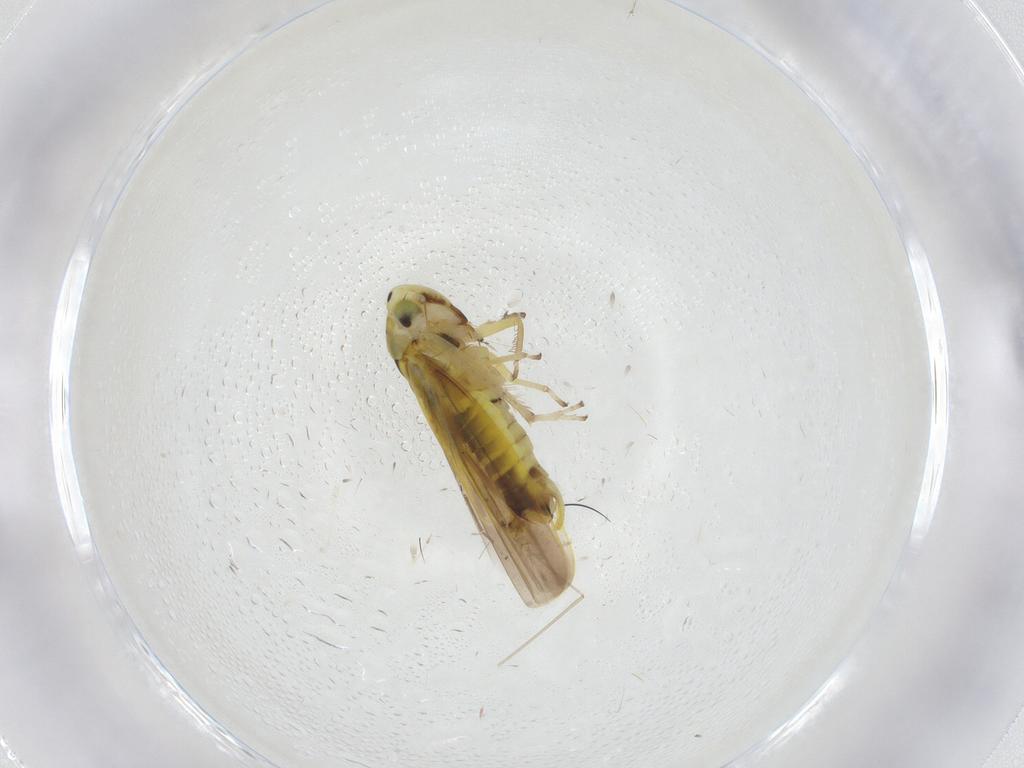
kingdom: Animalia
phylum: Arthropoda
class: Insecta
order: Hemiptera
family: Cicadellidae
